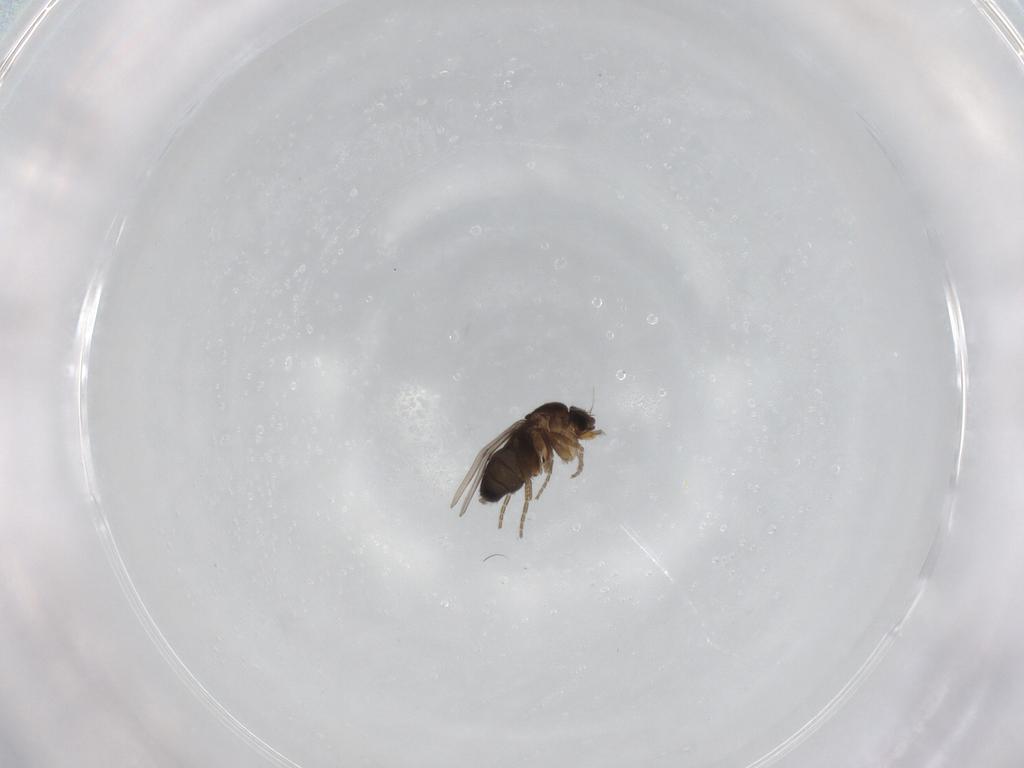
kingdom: Animalia
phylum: Arthropoda
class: Insecta
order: Diptera
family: Phoridae
